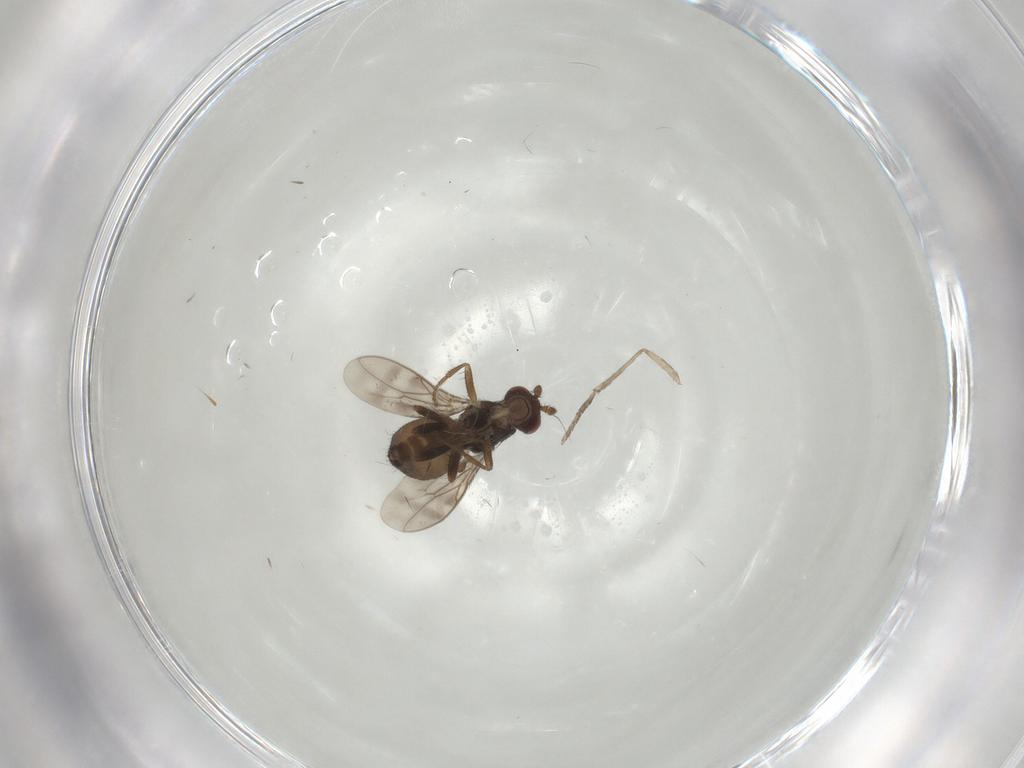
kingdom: Animalia
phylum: Arthropoda
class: Insecta
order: Diptera
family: Sphaeroceridae
